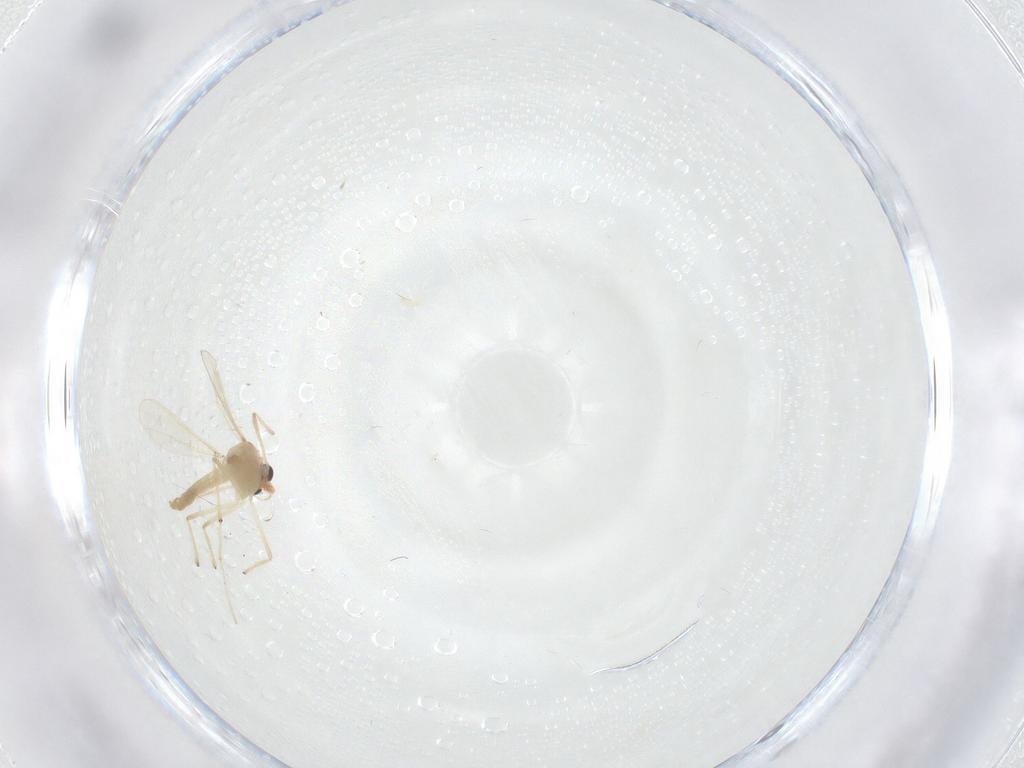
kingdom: Animalia
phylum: Arthropoda
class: Insecta
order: Diptera
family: Chironomidae
